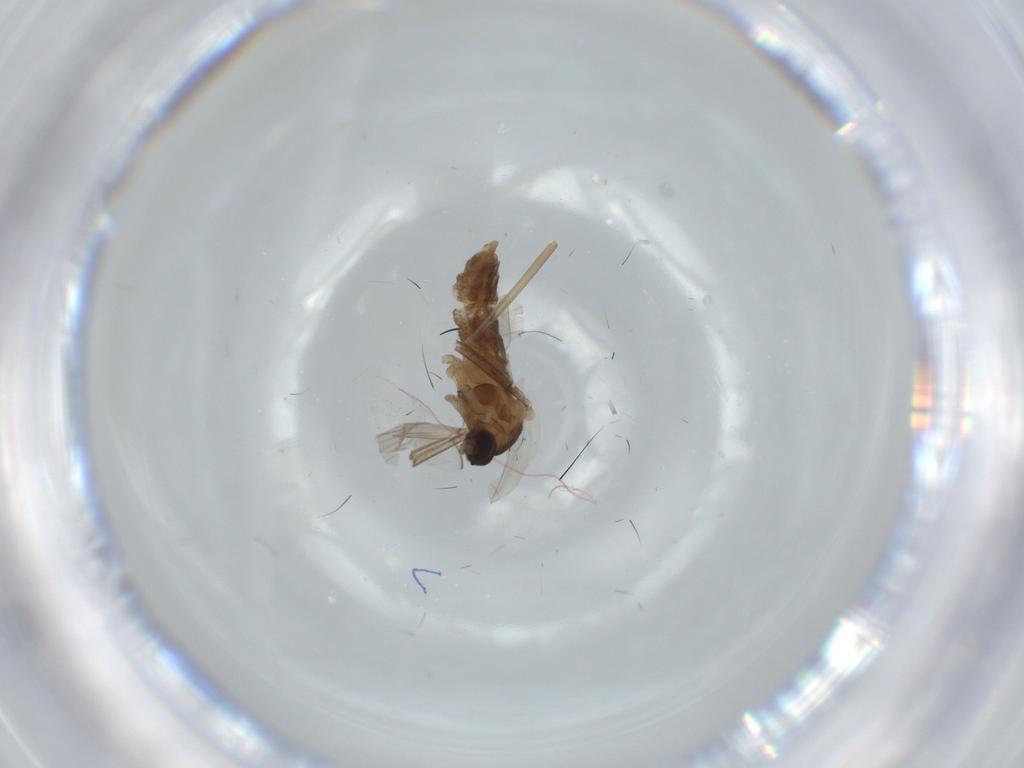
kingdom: Animalia
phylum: Arthropoda
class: Insecta
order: Diptera
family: Cecidomyiidae
